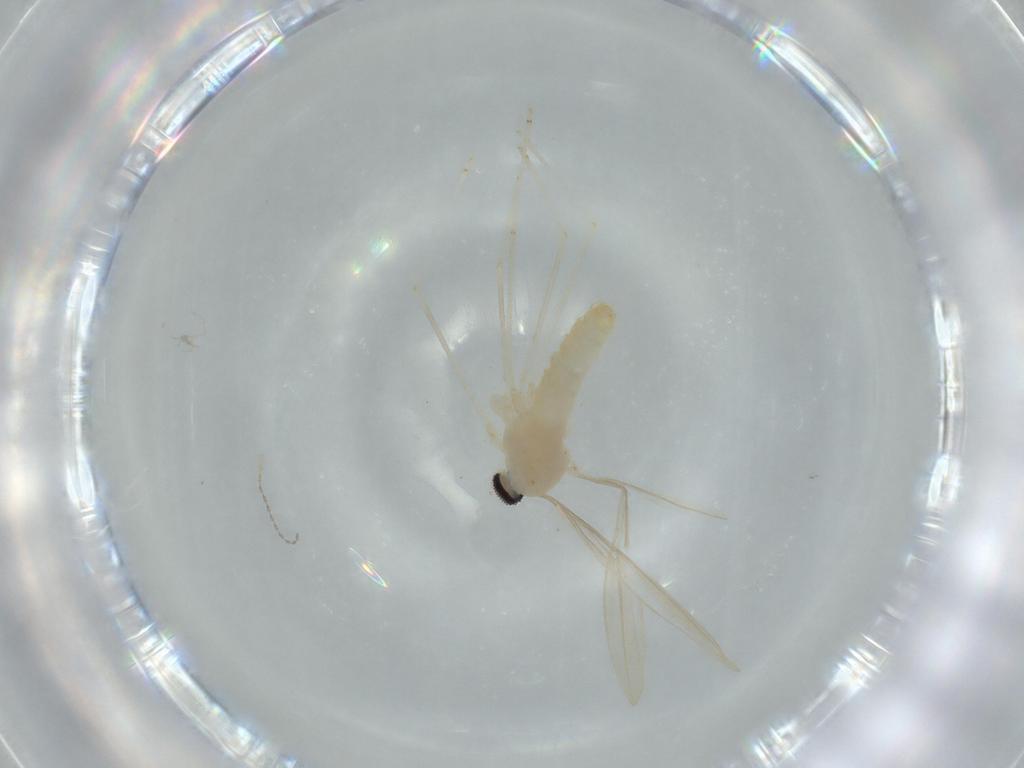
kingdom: Animalia
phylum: Arthropoda
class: Insecta
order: Diptera
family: Cecidomyiidae
